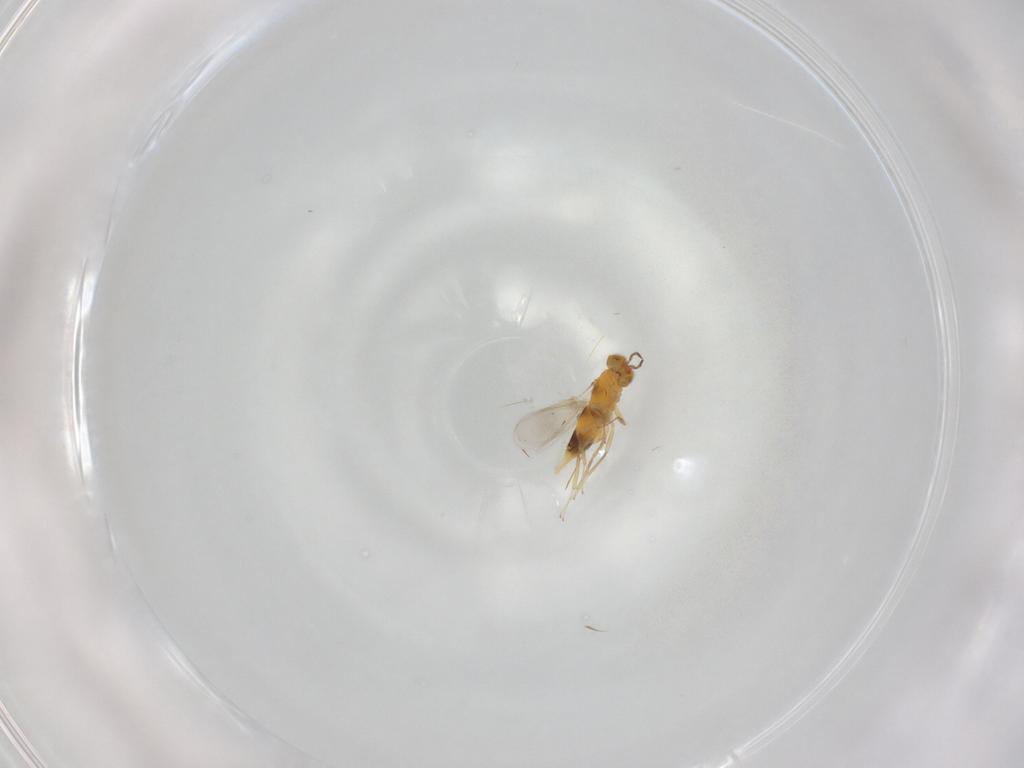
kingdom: Animalia
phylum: Arthropoda
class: Insecta
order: Hymenoptera
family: Aphelinidae
